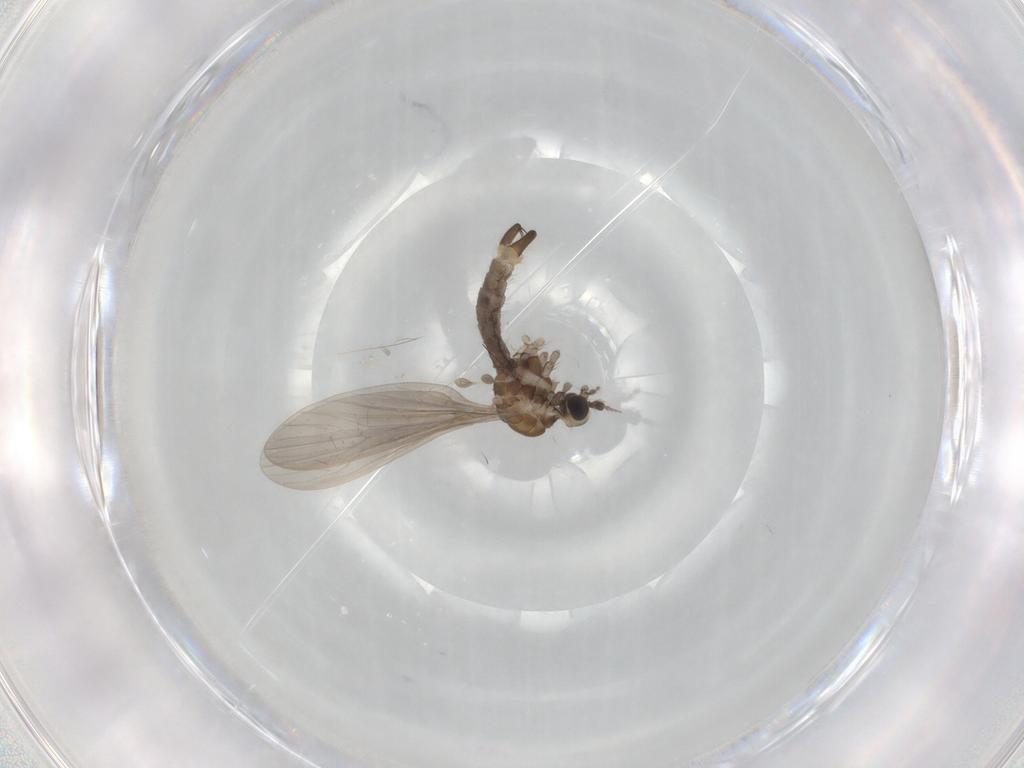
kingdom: Animalia
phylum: Arthropoda
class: Insecta
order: Diptera
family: Limoniidae
